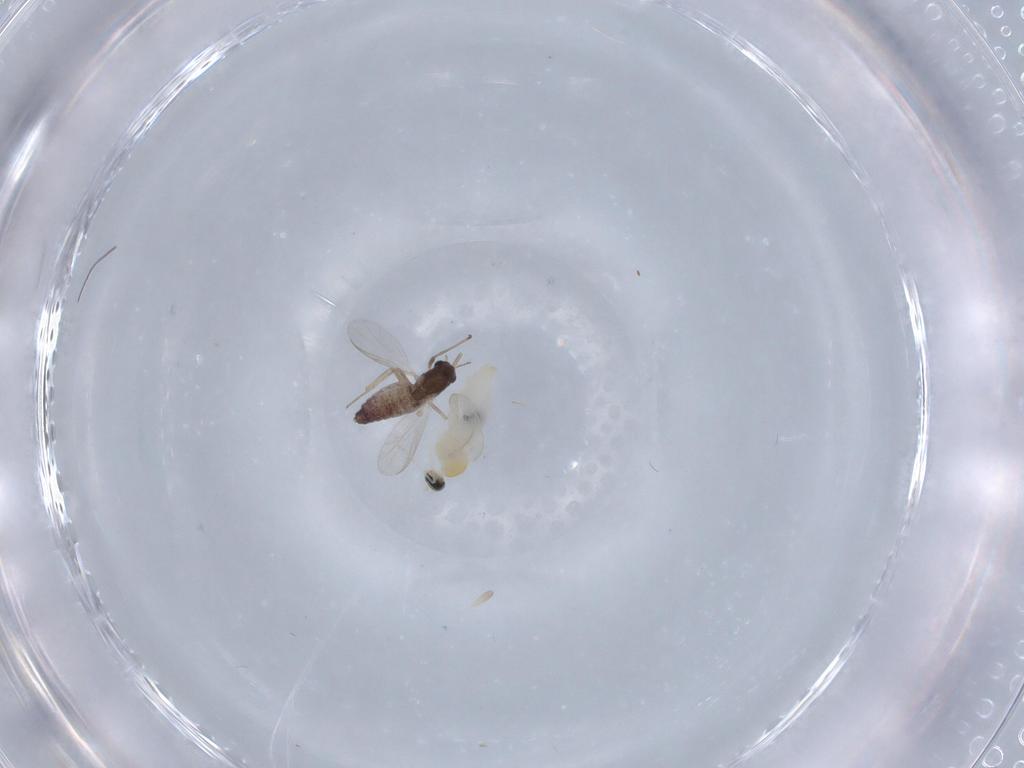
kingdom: Animalia
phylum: Arthropoda
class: Insecta
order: Diptera
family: Chironomidae
